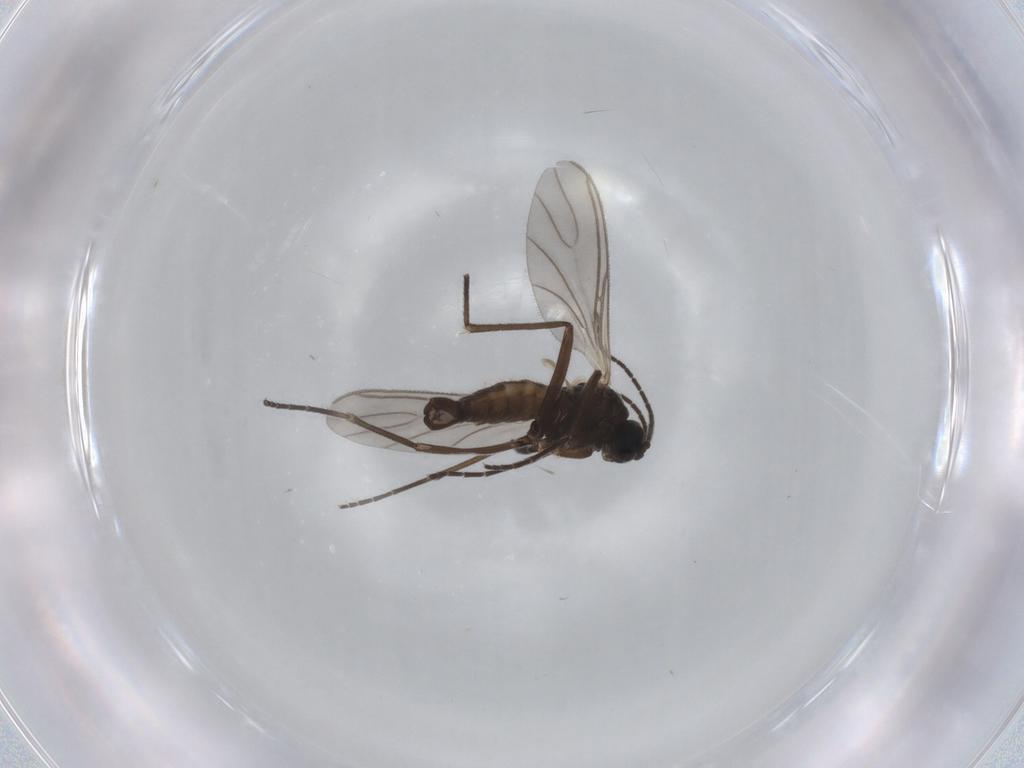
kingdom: Animalia
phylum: Arthropoda
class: Insecta
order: Diptera
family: Sciaridae
